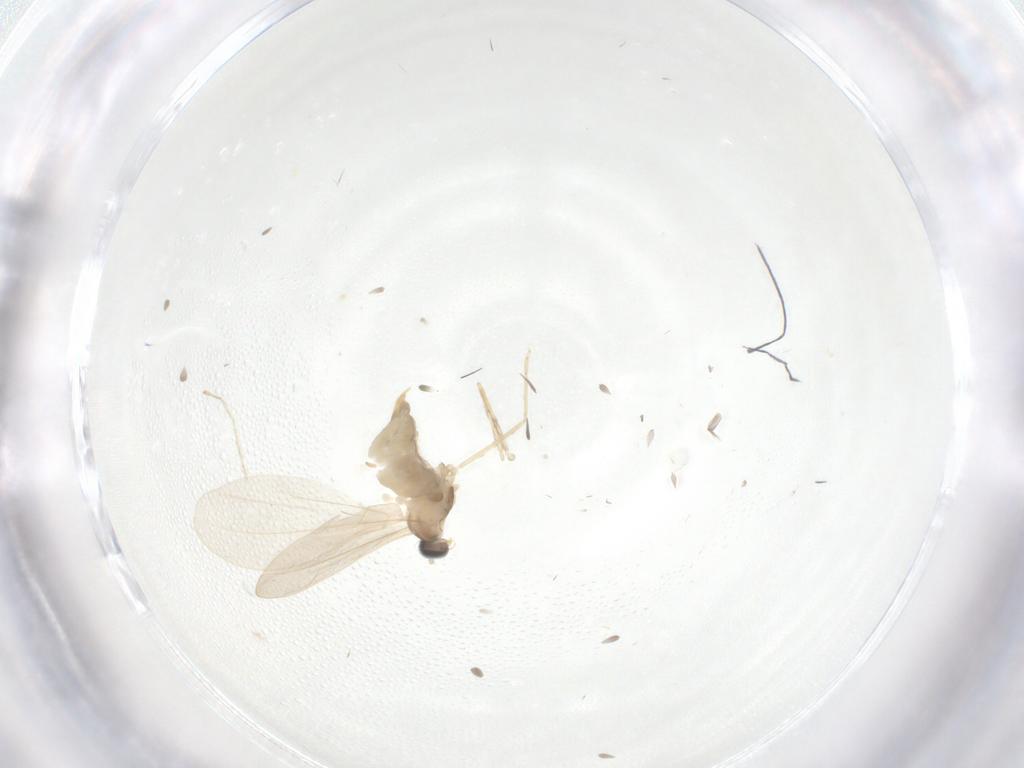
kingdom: Animalia
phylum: Arthropoda
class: Insecta
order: Diptera
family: Cecidomyiidae
